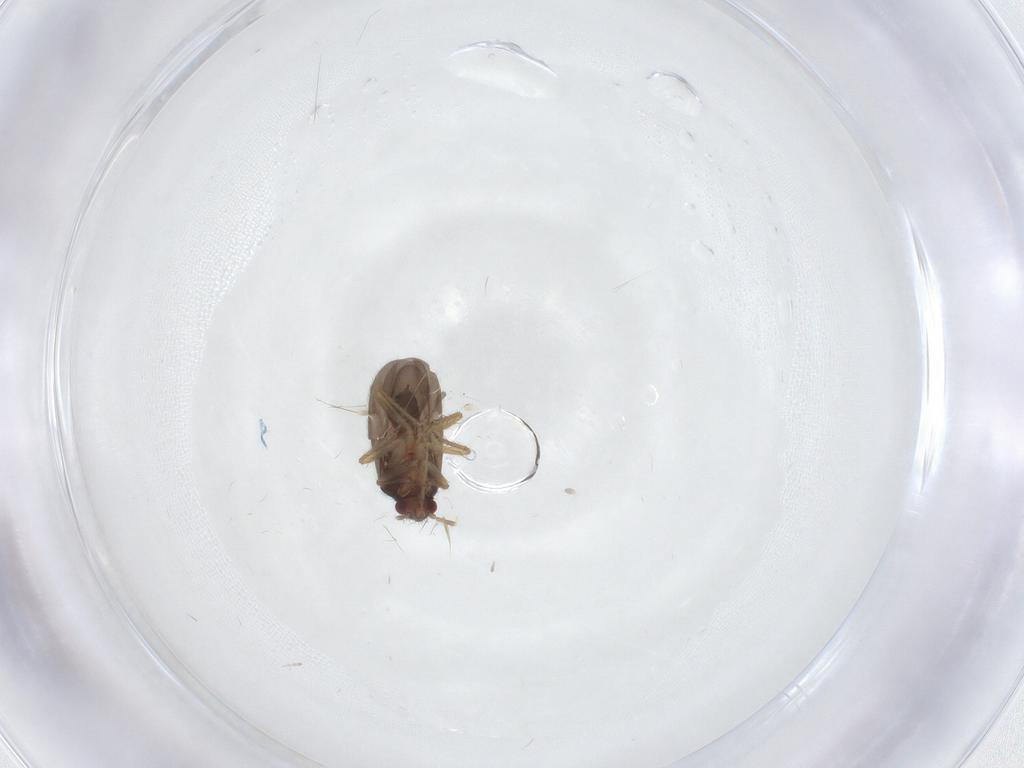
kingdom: Animalia
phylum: Arthropoda
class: Insecta
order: Hemiptera
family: Ceratocombidae
